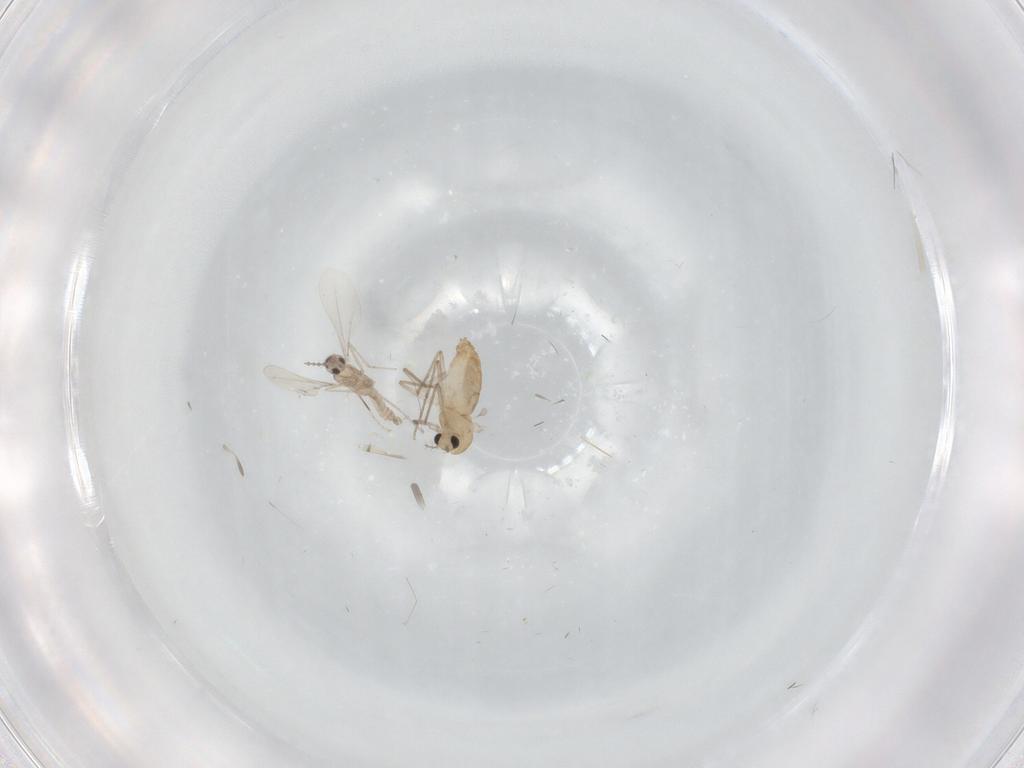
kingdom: Animalia
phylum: Arthropoda
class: Insecta
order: Diptera
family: Chironomidae
